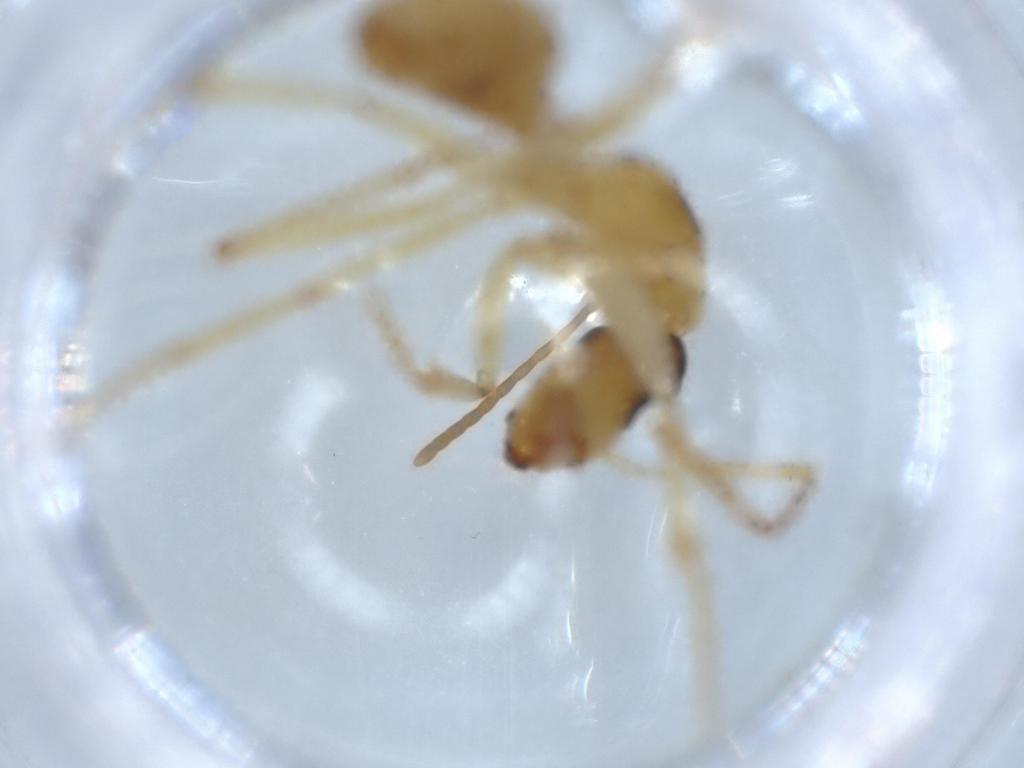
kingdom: Animalia
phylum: Arthropoda
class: Insecta
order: Hymenoptera
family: Formicidae
